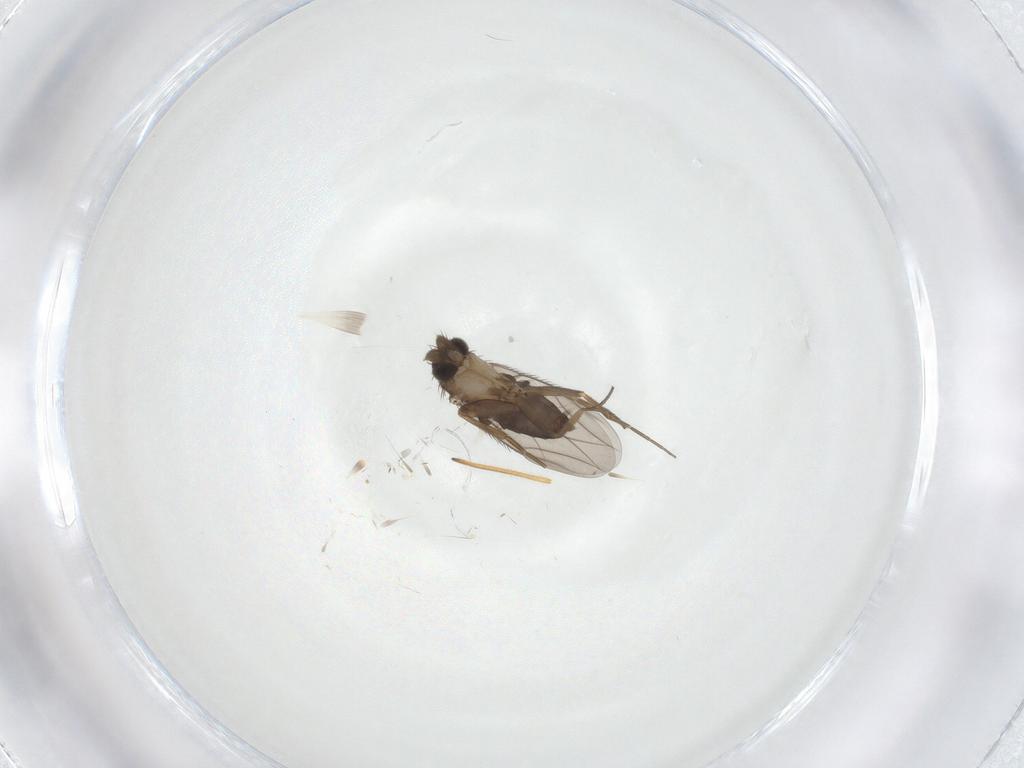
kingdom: Animalia
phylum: Arthropoda
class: Insecta
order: Diptera
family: Phoridae
